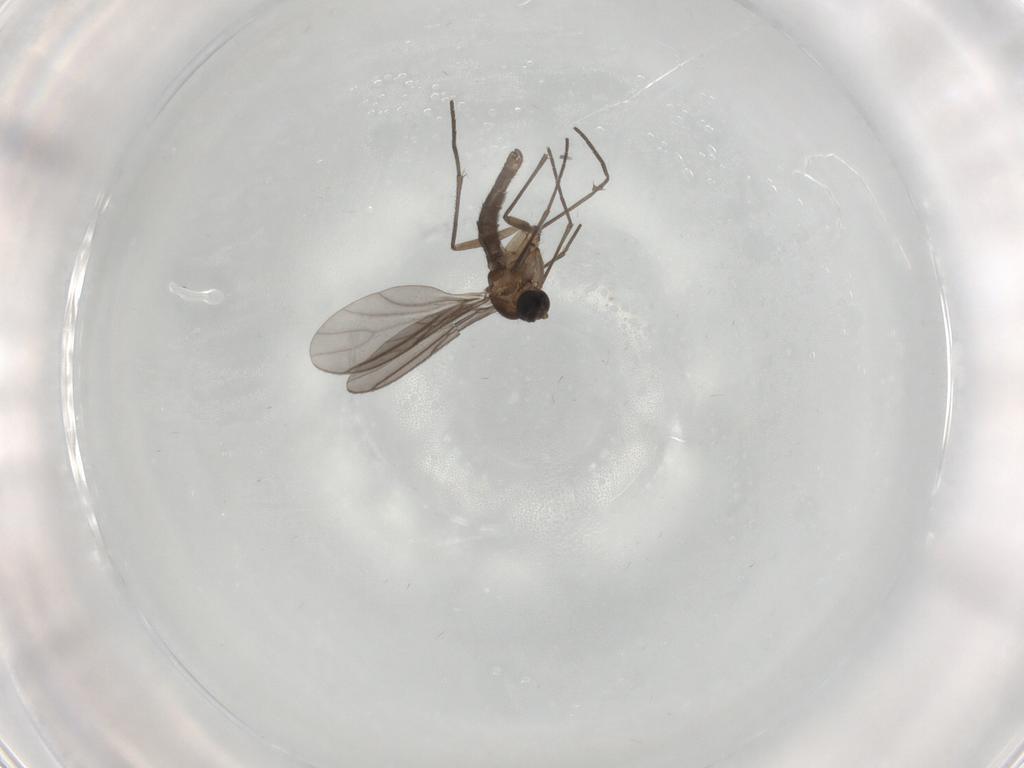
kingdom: Animalia
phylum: Arthropoda
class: Insecta
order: Diptera
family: Sciaridae
